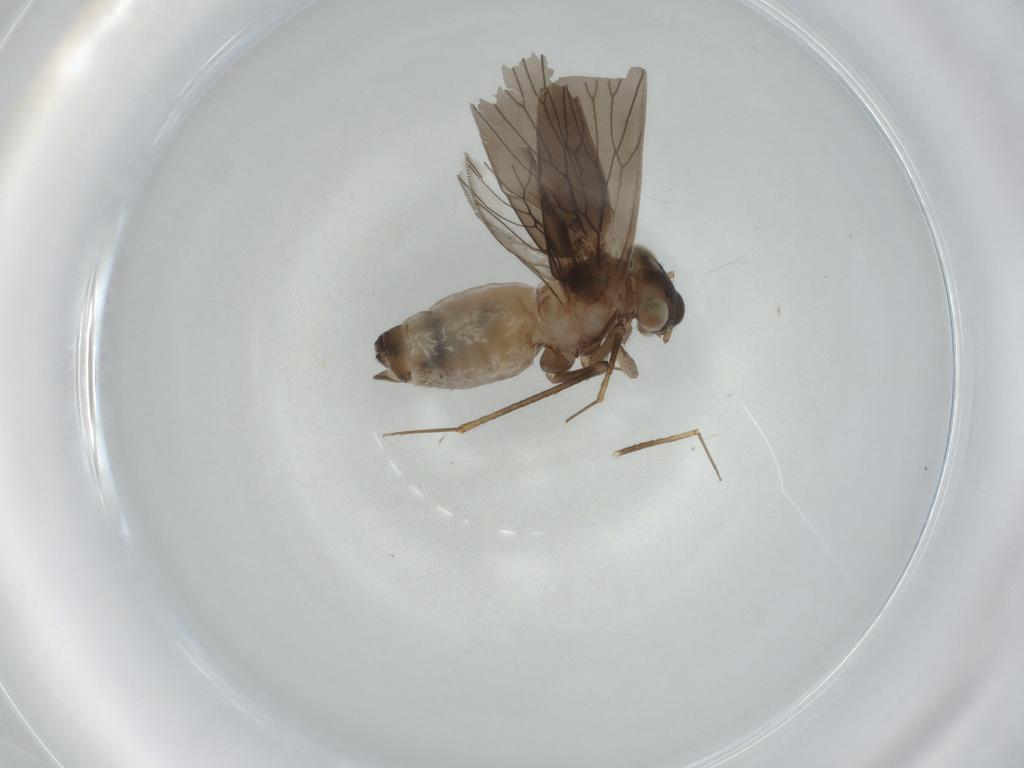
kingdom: Animalia
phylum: Arthropoda
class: Insecta
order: Psocodea
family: Lepidopsocidae
